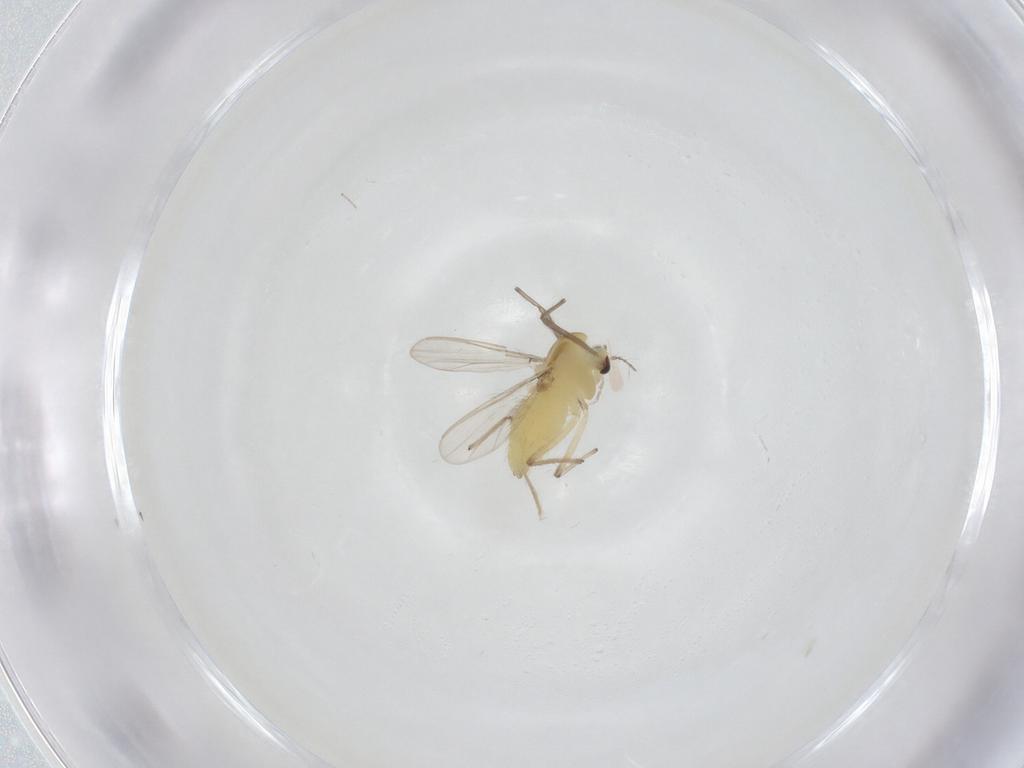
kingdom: Animalia
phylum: Arthropoda
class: Insecta
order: Diptera
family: Chironomidae
